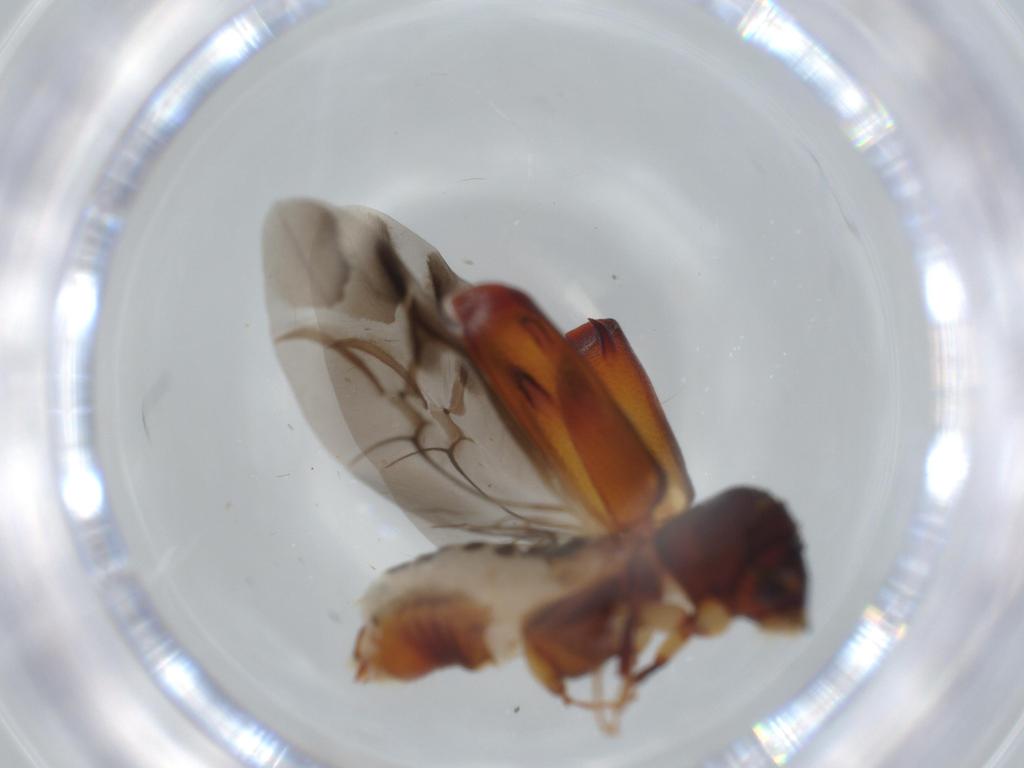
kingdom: Animalia
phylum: Arthropoda
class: Insecta
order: Coleoptera
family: Bostrichidae
